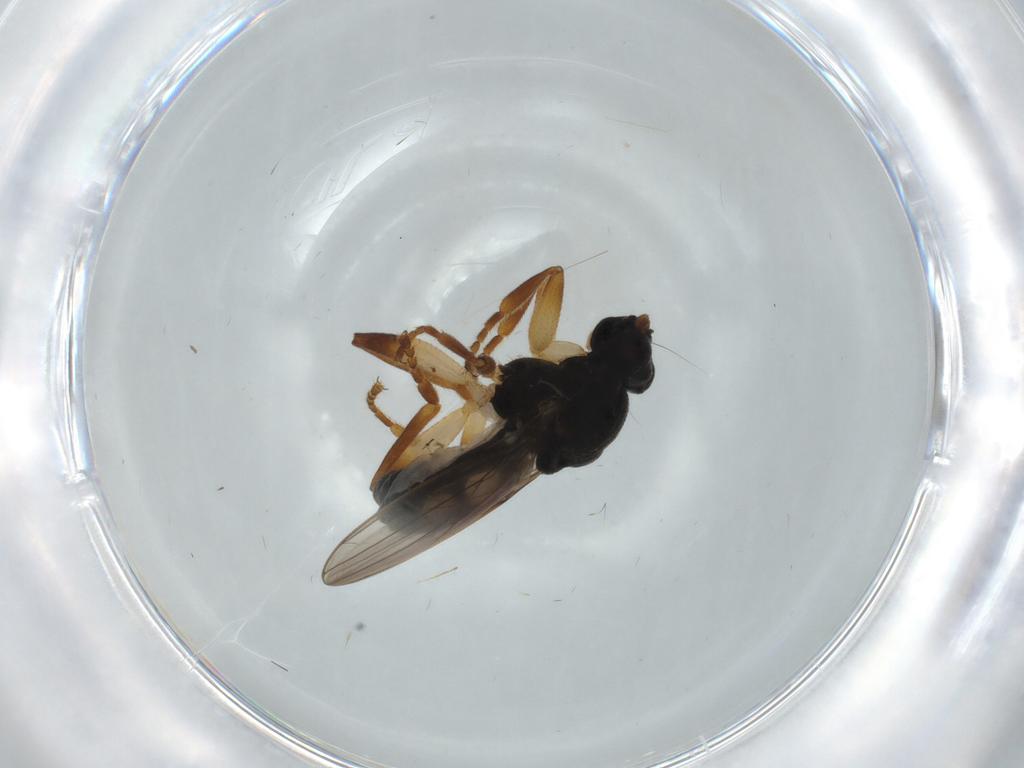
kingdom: Animalia
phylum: Arthropoda
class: Insecta
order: Diptera
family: Sphaeroceridae
